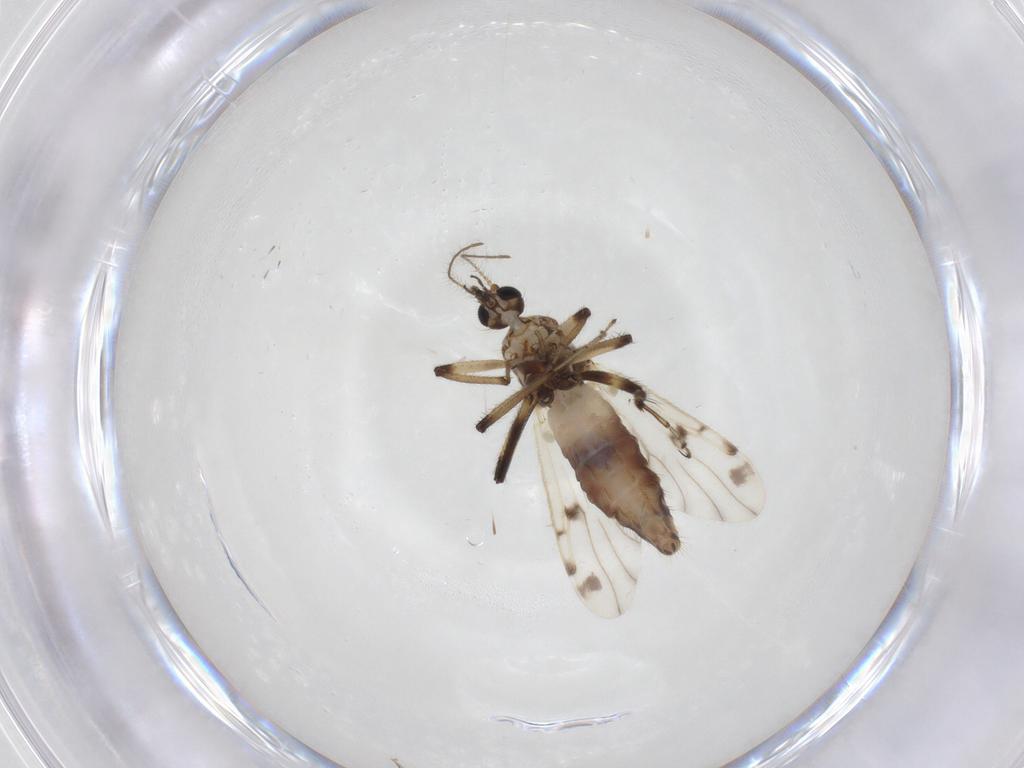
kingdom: Animalia
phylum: Arthropoda
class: Insecta
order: Diptera
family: Ceratopogonidae
